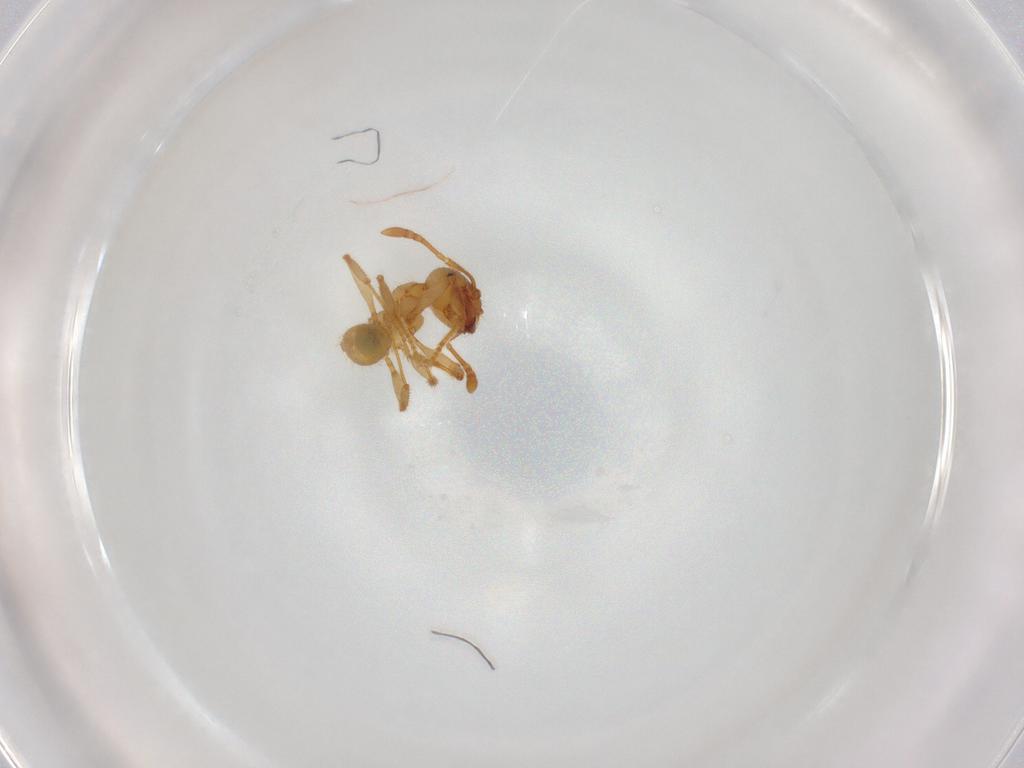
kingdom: Animalia
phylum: Arthropoda
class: Insecta
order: Hymenoptera
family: Formicidae
